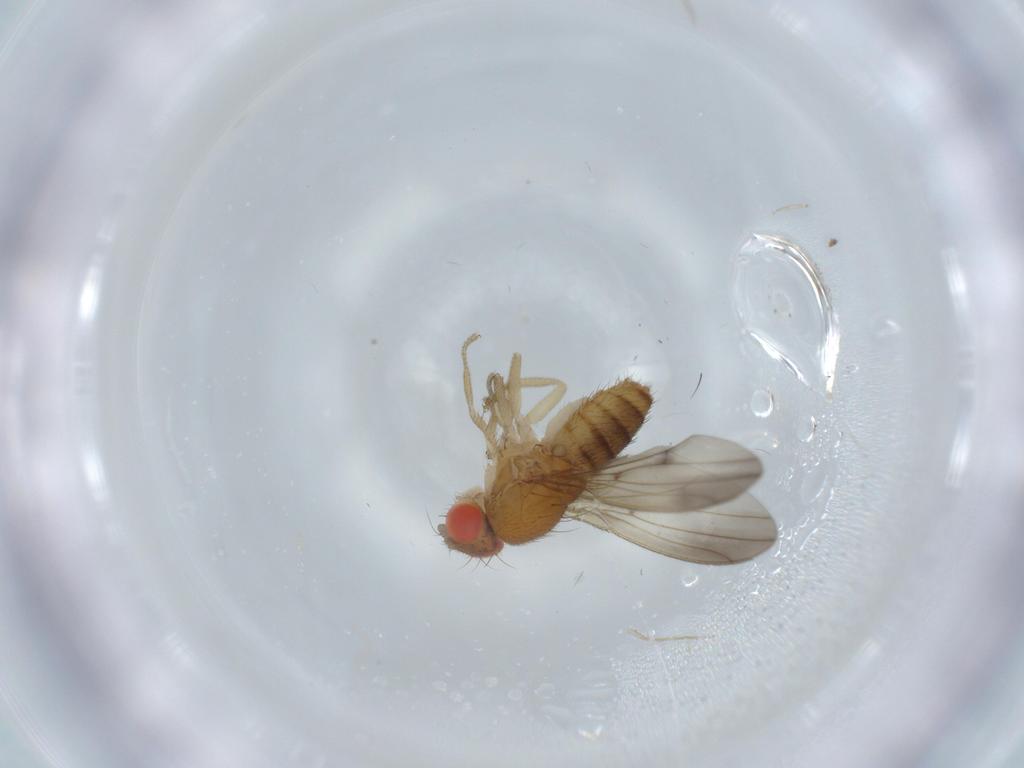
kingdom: Animalia
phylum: Arthropoda
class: Insecta
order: Diptera
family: Drosophilidae
